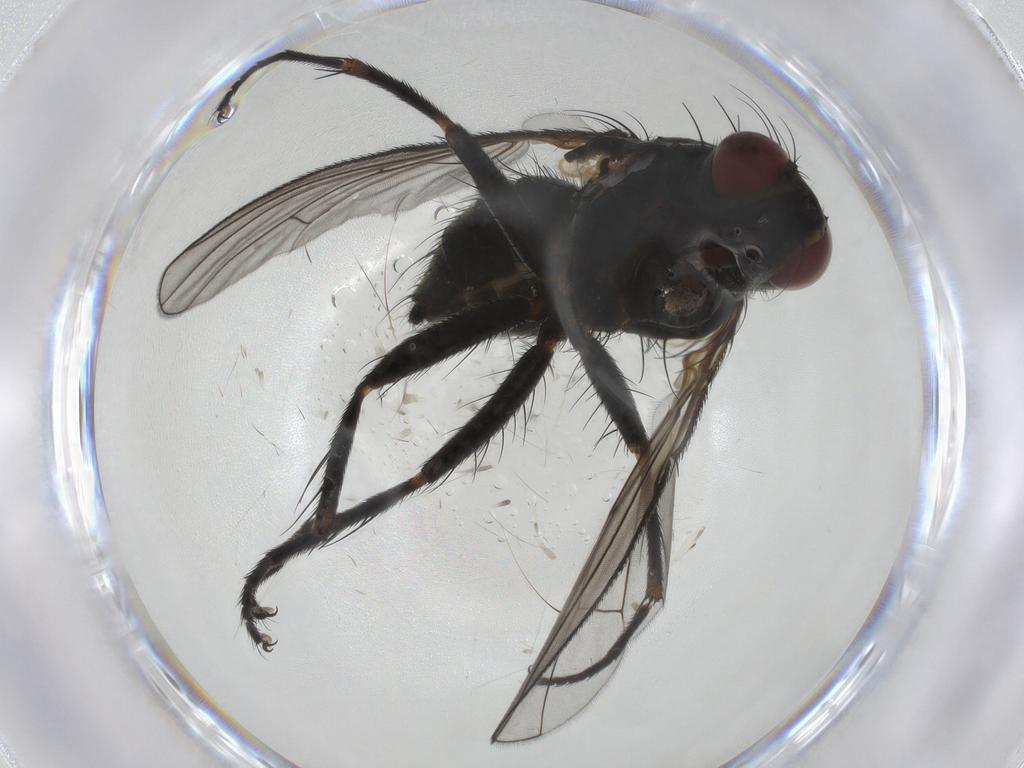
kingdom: Animalia
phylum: Arthropoda
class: Insecta
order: Diptera
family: Muscidae
